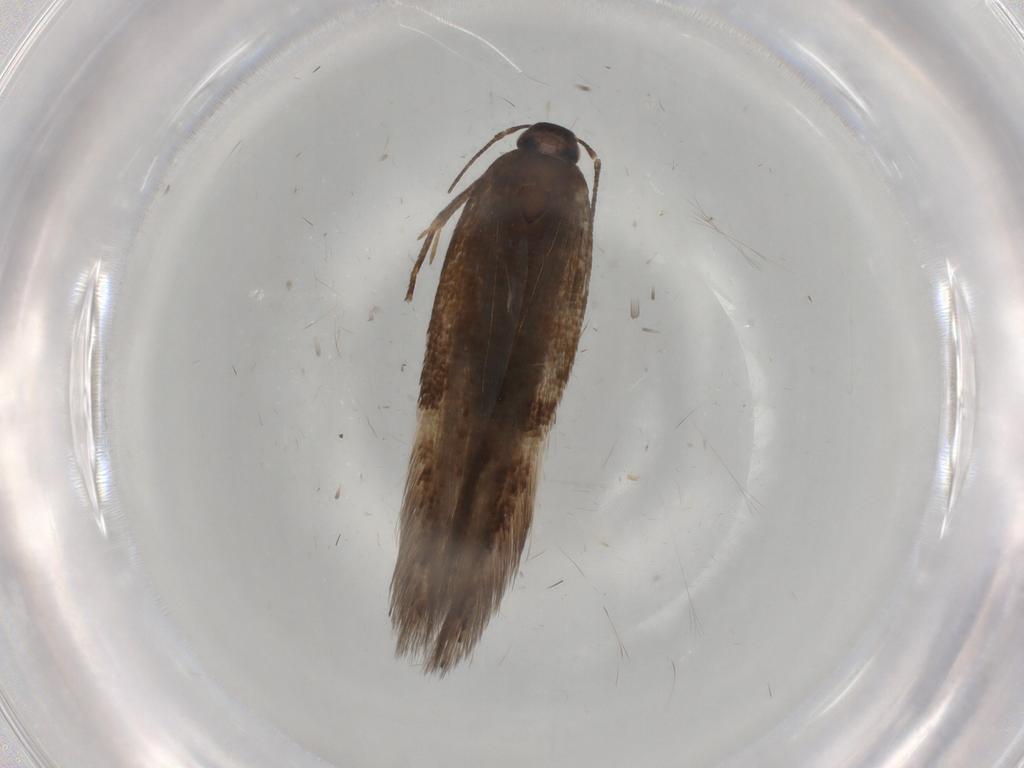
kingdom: Animalia
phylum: Arthropoda
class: Insecta
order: Lepidoptera
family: Gelechiidae
